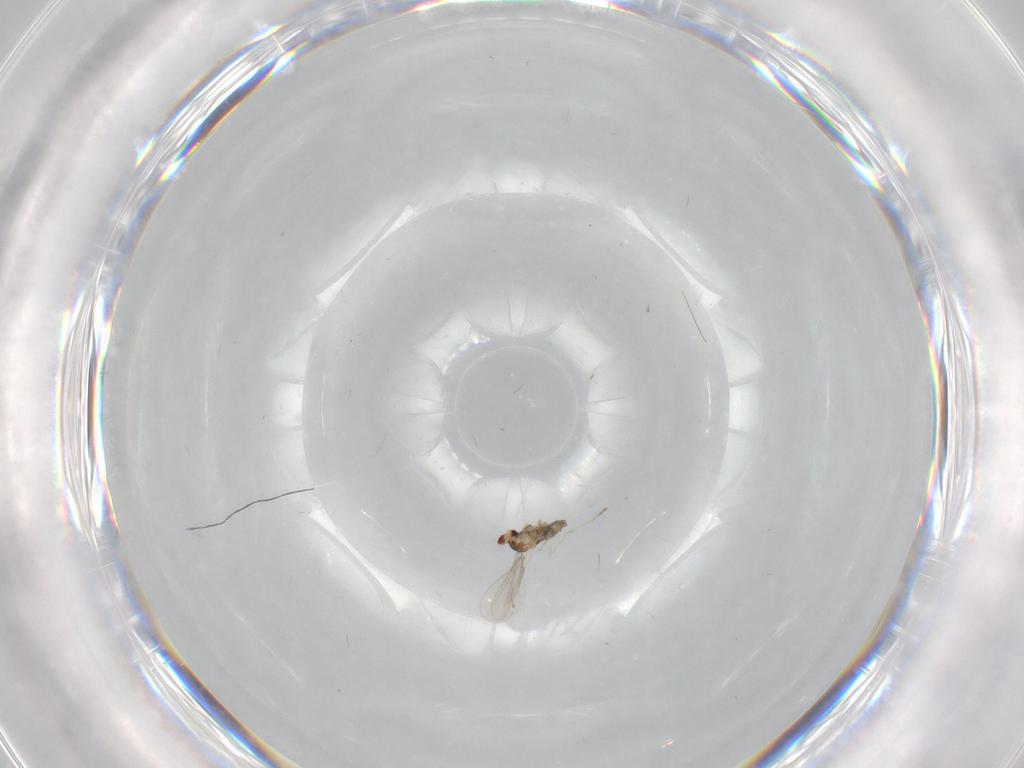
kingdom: Animalia
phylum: Arthropoda
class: Insecta
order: Diptera
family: Cecidomyiidae
